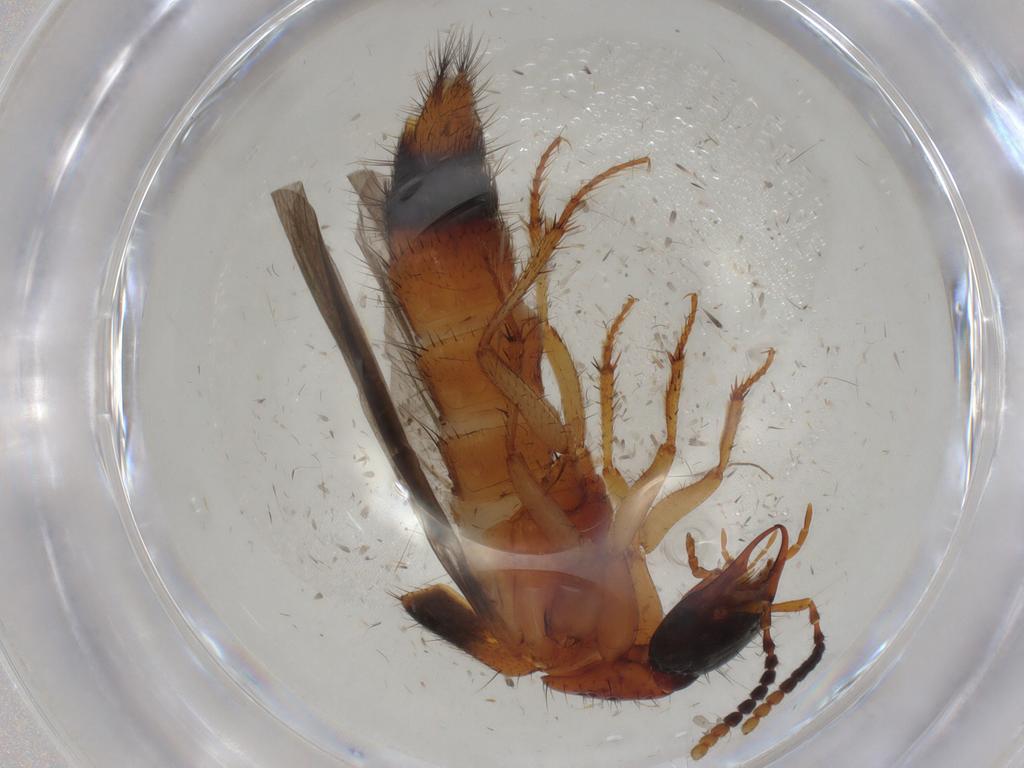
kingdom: Animalia
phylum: Arthropoda
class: Insecta
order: Coleoptera
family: Staphylinidae
